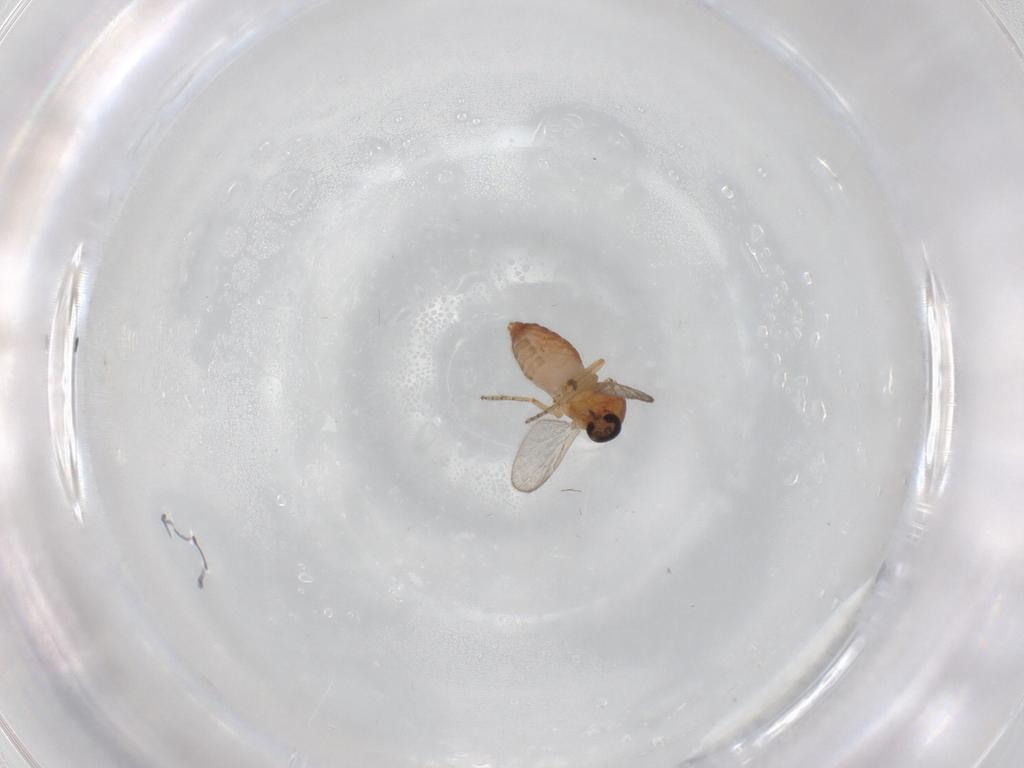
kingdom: Animalia
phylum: Arthropoda
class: Insecta
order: Diptera
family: Ceratopogonidae
